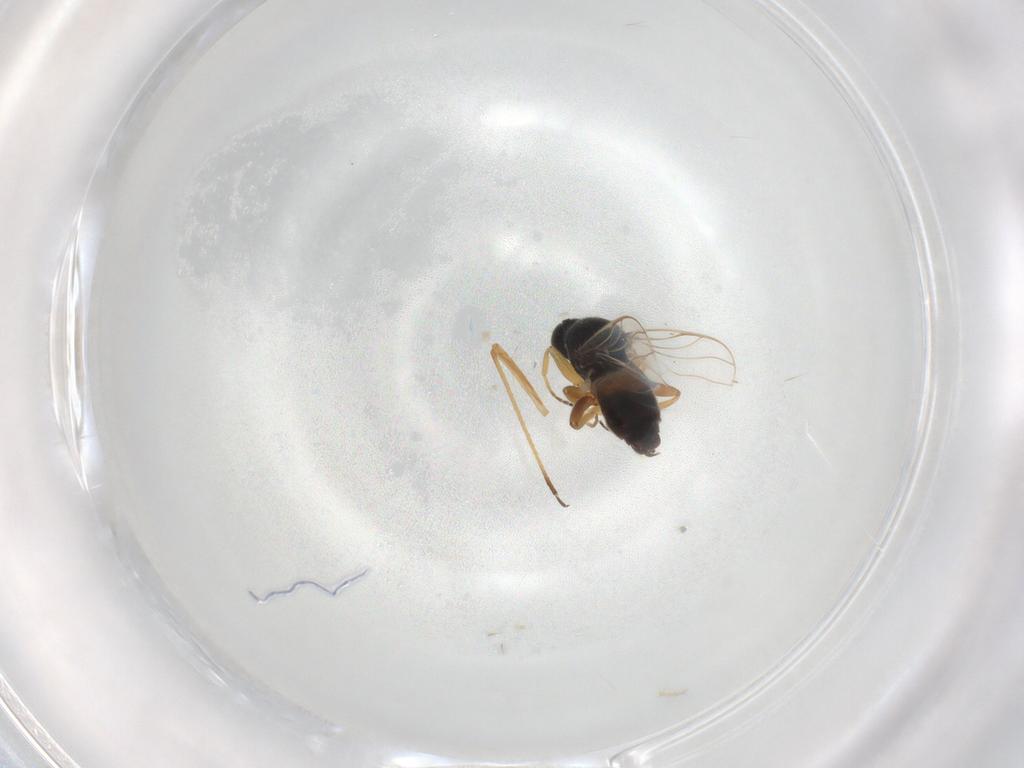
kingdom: Animalia
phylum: Arthropoda
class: Insecta
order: Diptera
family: Hybotidae
